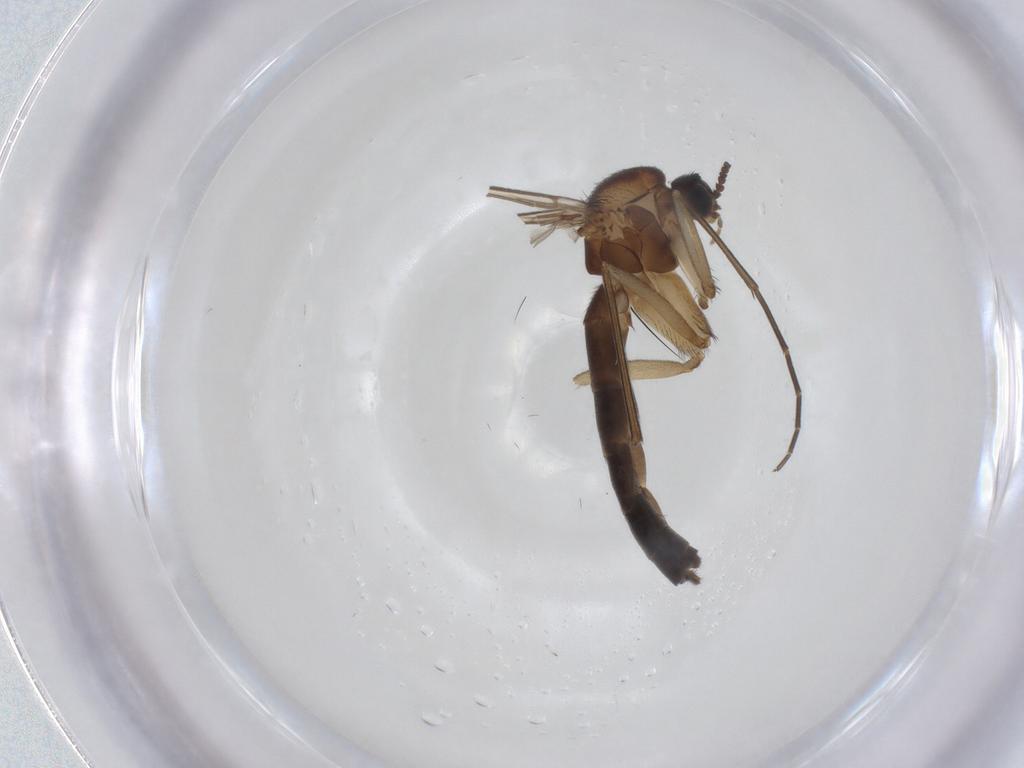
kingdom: Animalia
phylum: Arthropoda
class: Insecta
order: Diptera
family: Keroplatidae
